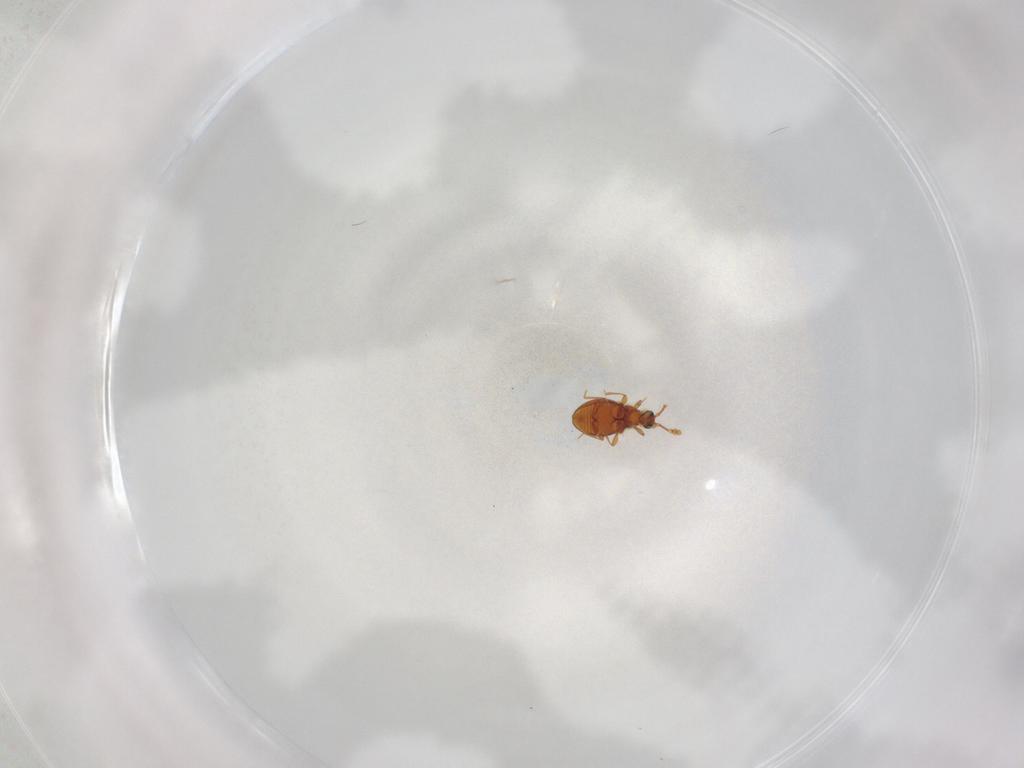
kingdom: Animalia
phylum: Arthropoda
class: Insecta
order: Coleoptera
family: Staphylinidae
